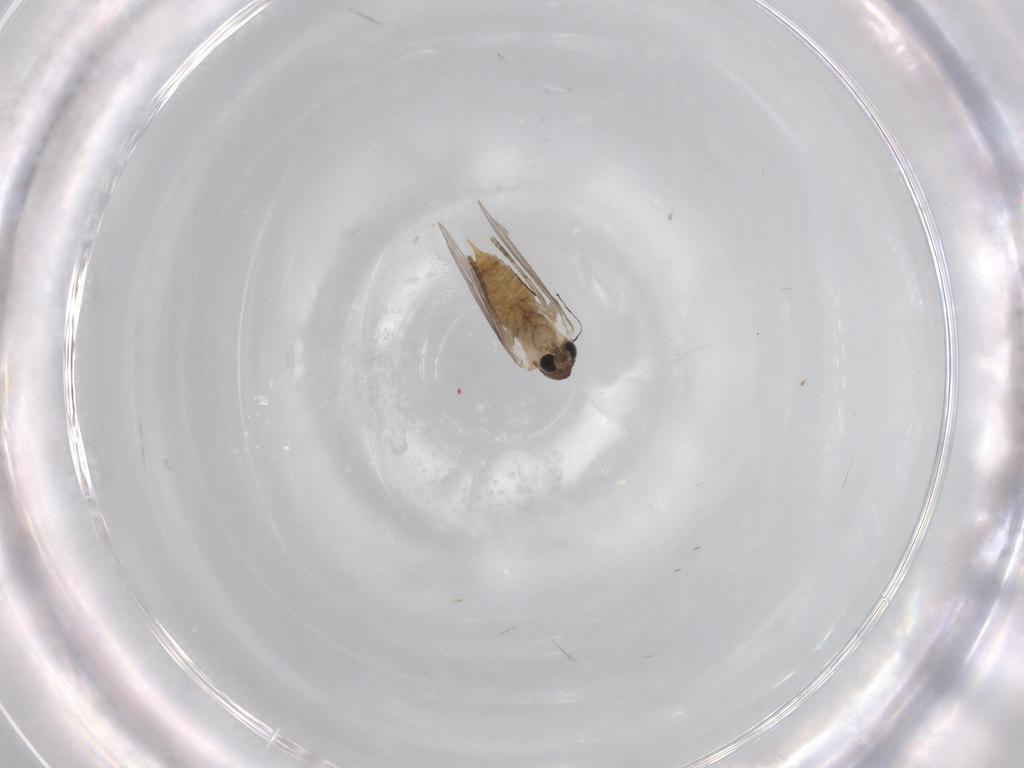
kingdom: Animalia
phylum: Arthropoda
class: Insecta
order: Diptera
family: Psychodidae
